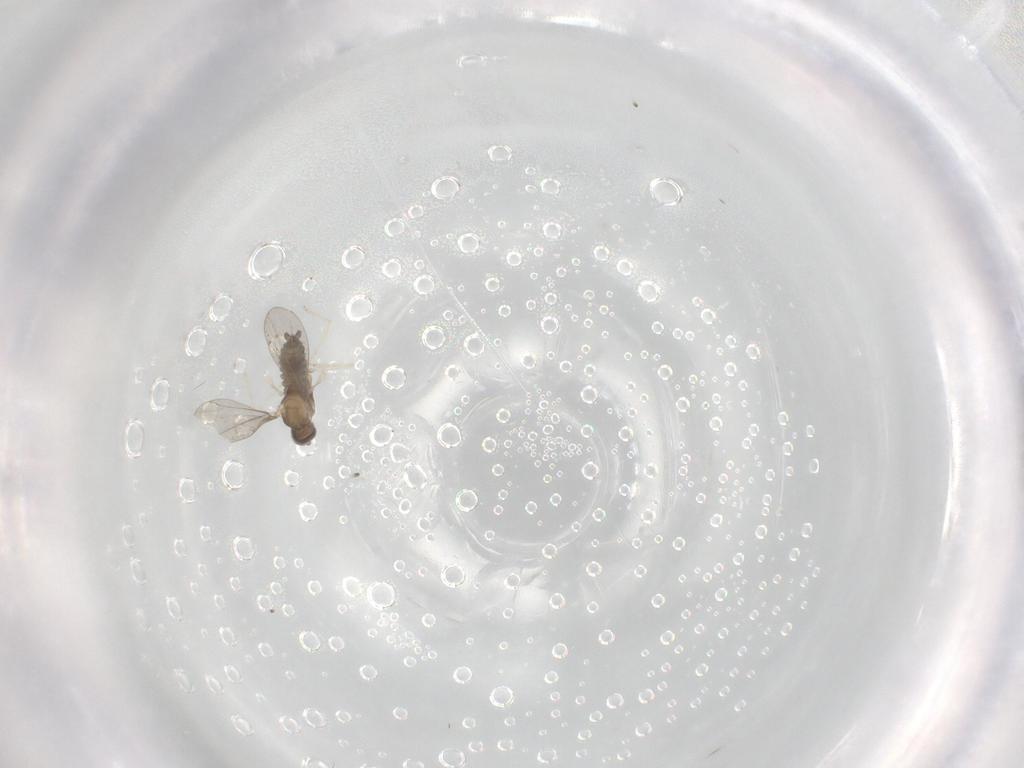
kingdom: Animalia
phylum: Arthropoda
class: Insecta
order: Diptera
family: Cecidomyiidae
